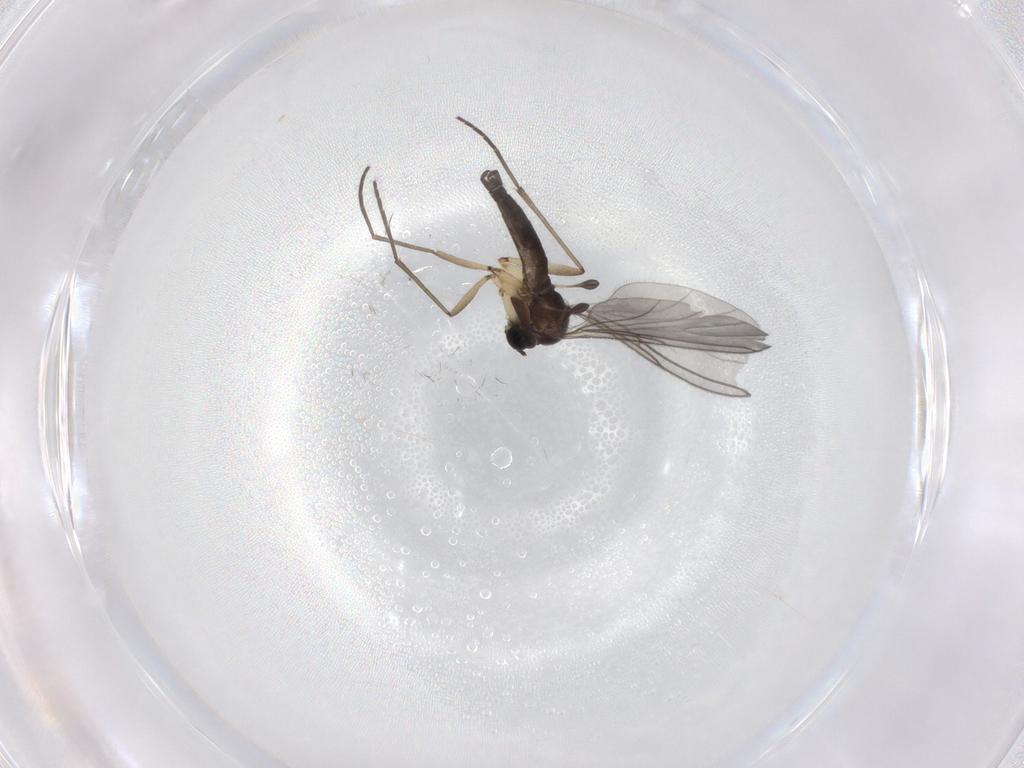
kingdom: Animalia
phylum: Arthropoda
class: Insecta
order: Diptera
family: Sciaridae
